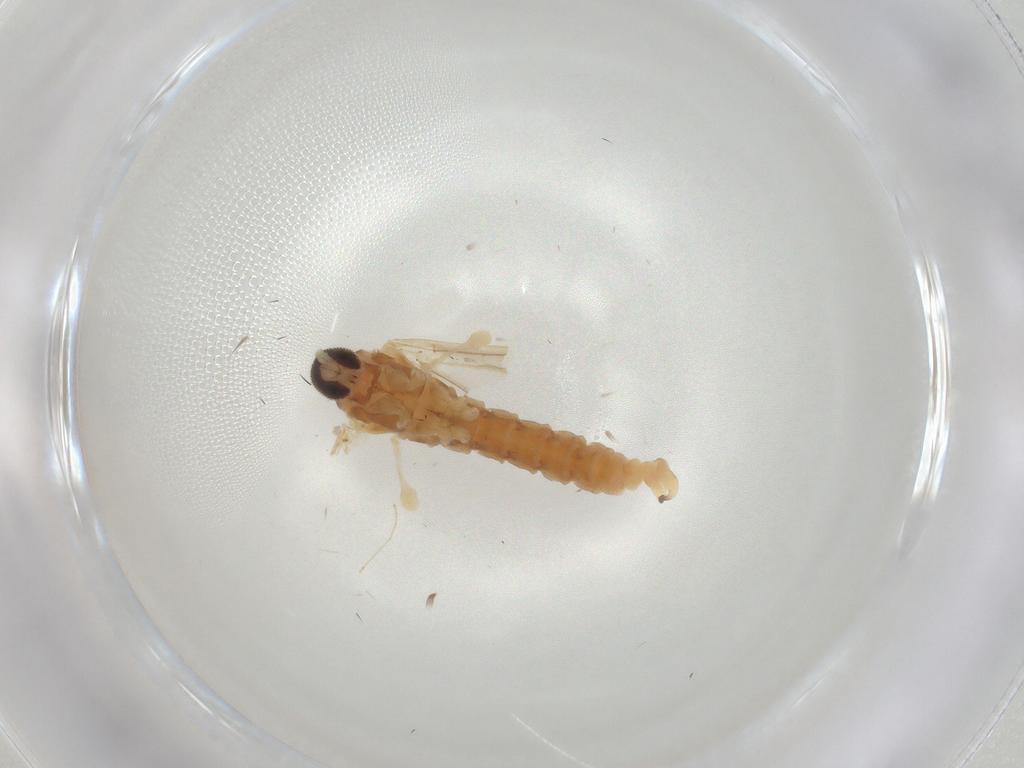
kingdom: Animalia
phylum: Arthropoda
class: Insecta
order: Diptera
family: Cecidomyiidae
